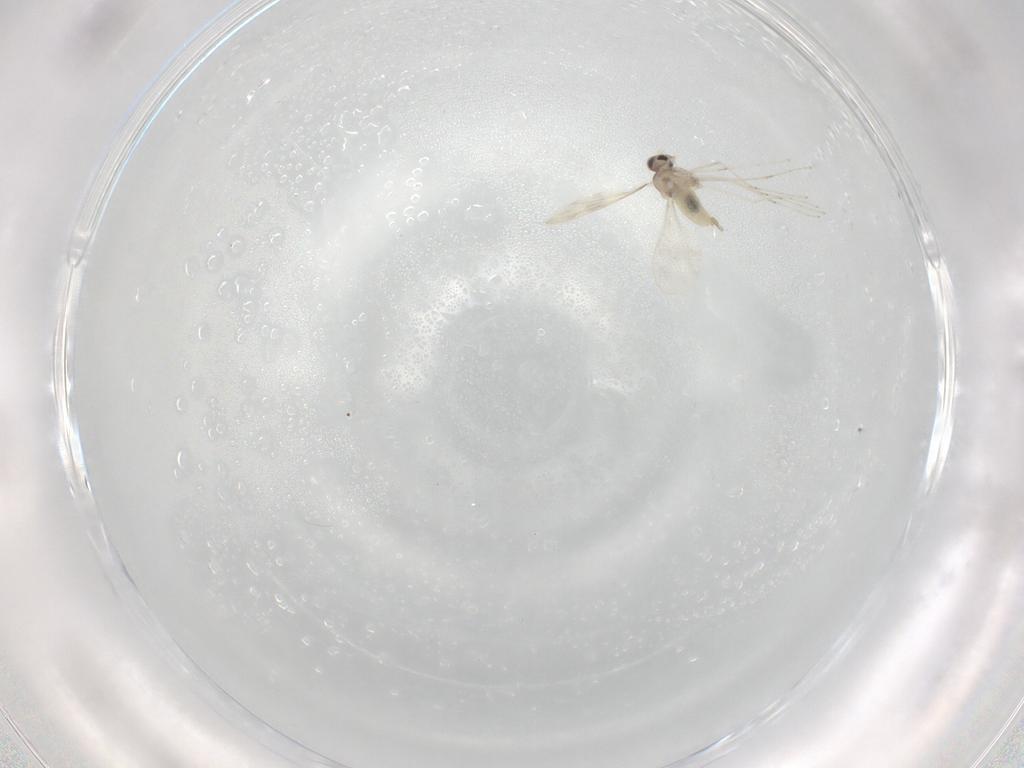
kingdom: Animalia
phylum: Arthropoda
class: Insecta
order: Diptera
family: Cecidomyiidae
